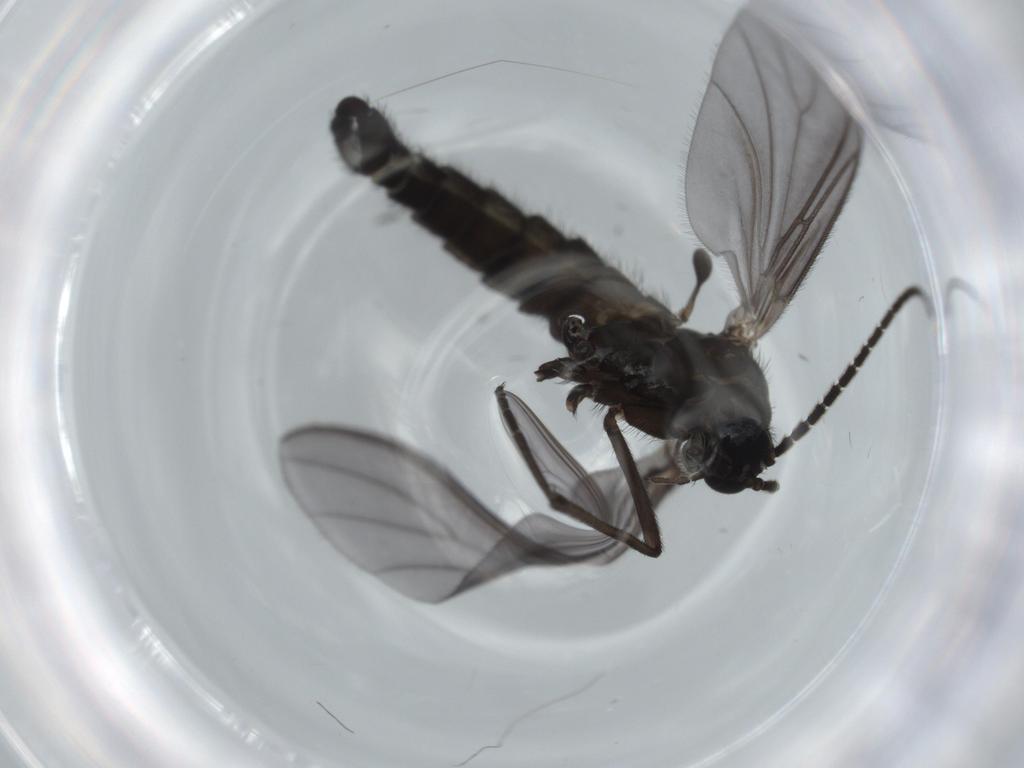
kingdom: Animalia
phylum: Arthropoda
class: Insecta
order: Diptera
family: Cecidomyiidae
